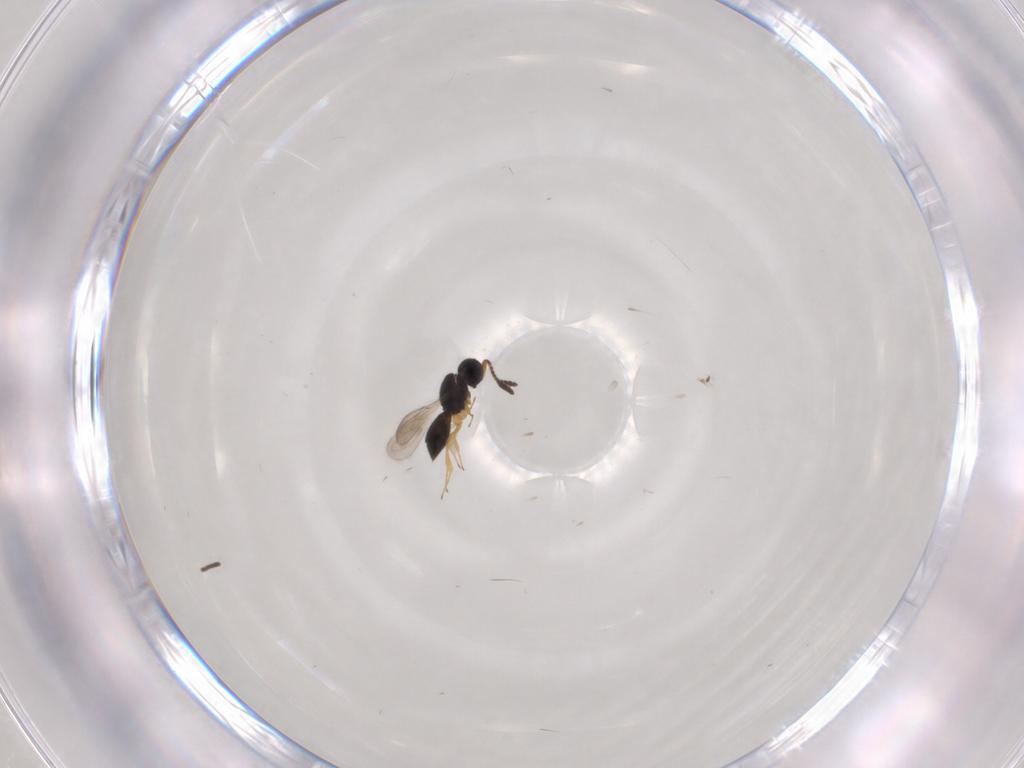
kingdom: Animalia
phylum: Arthropoda
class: Insecta
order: Hymenoptera
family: Scelionidae
